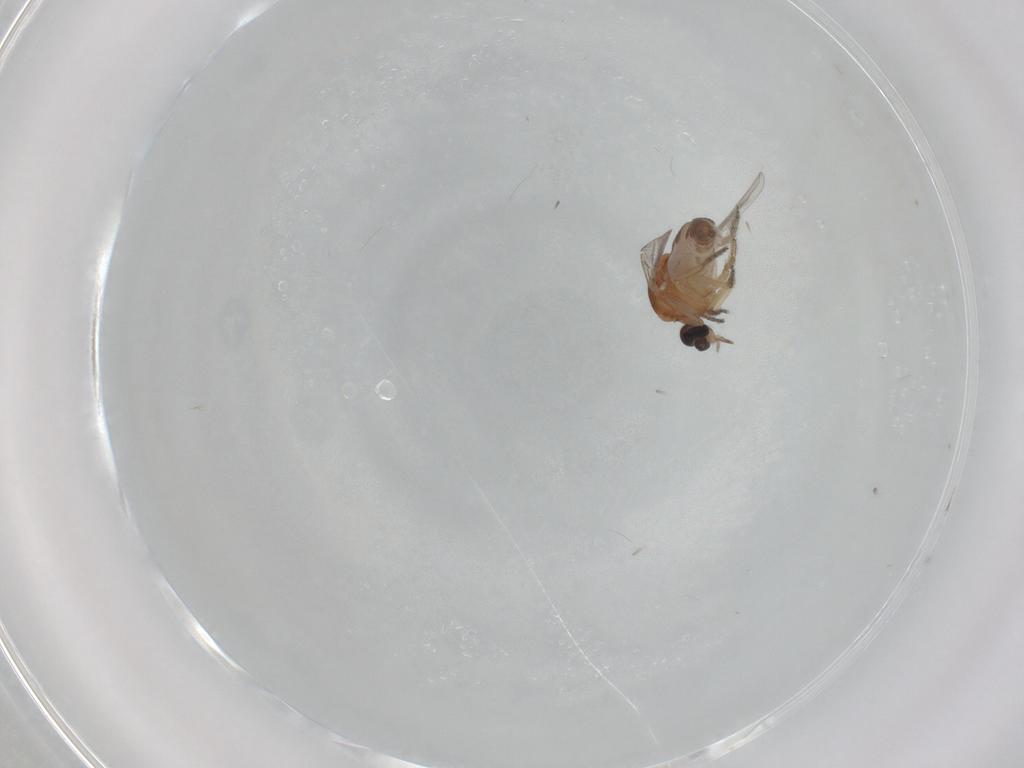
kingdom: Animalia
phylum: Arthropoda
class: Insecta
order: Diptera
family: Ceratopogonidae
